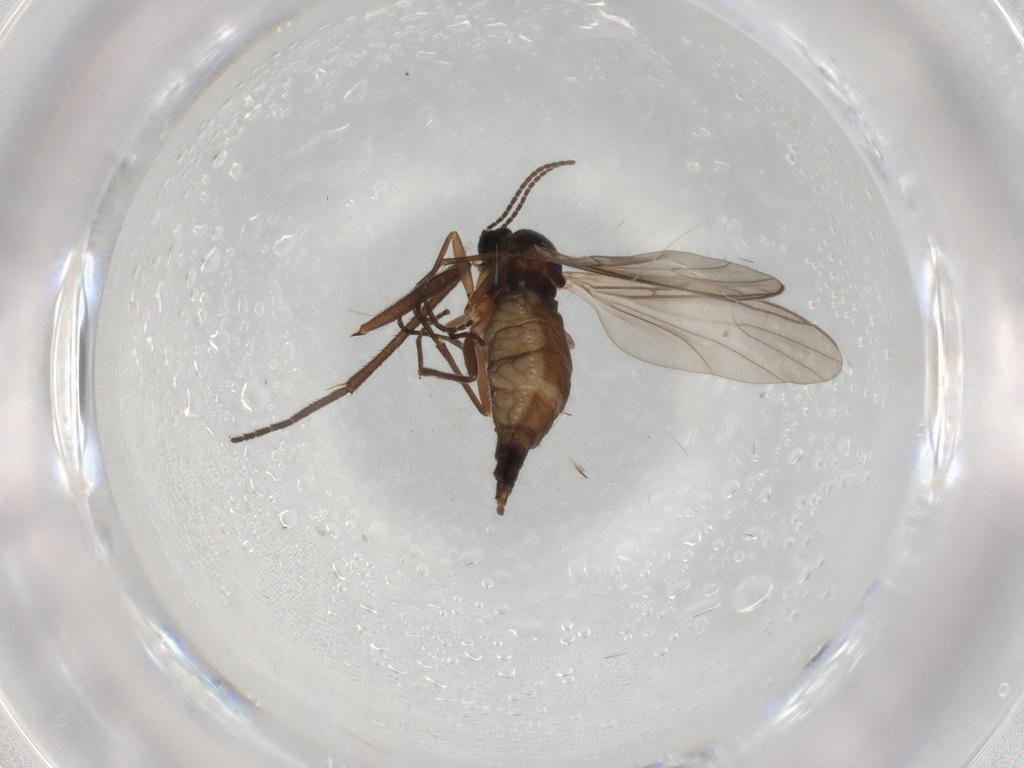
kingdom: Animalia
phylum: Arthropoda
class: Insecta
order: Diptera
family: Sciaridae
